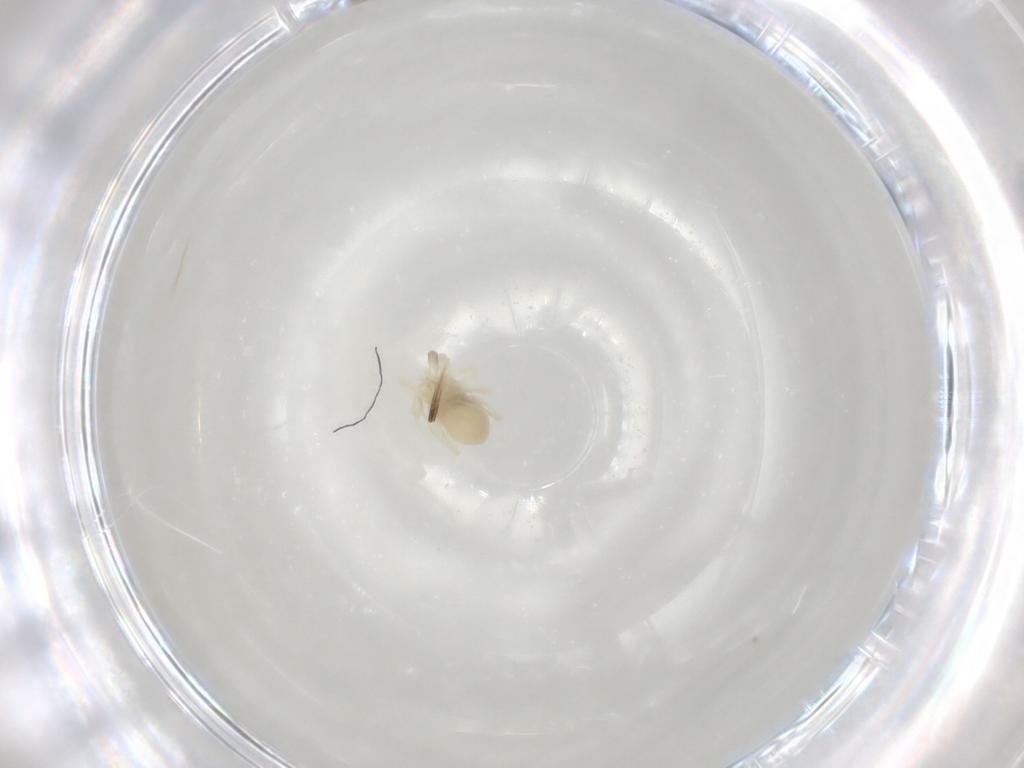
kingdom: Animalia
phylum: Arthropoda
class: Arachnida
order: Trombidiformes
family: Anystidae
